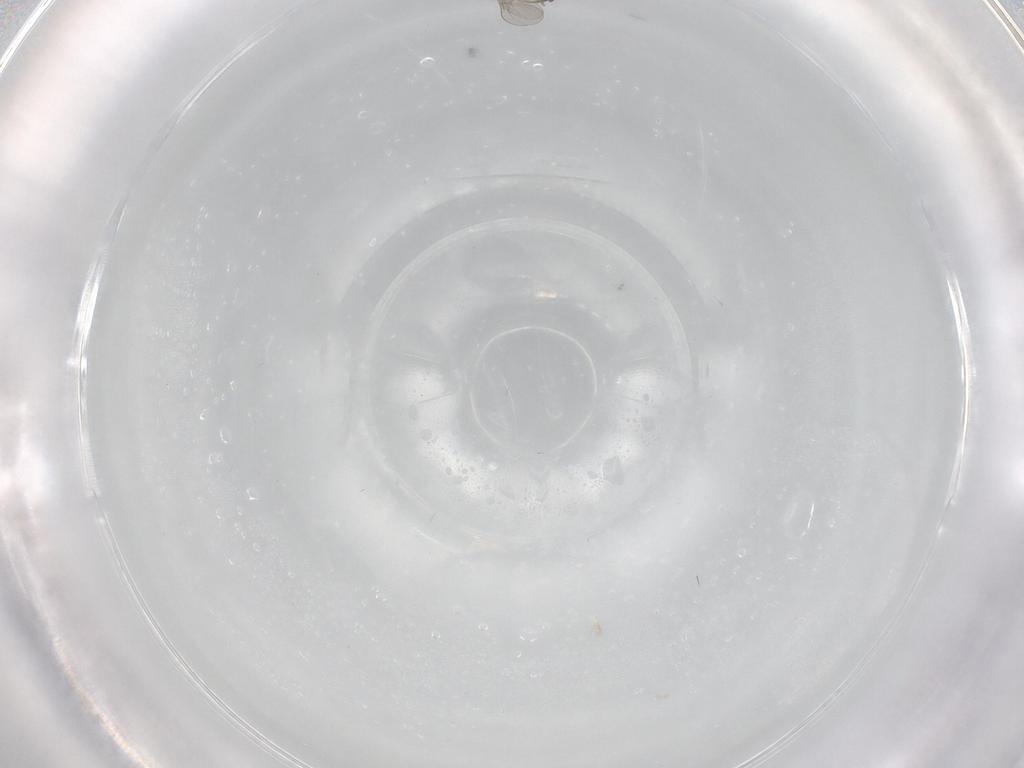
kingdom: Animalia
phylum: Arthropoda
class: Insecta
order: Diptera
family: Psychodidae
